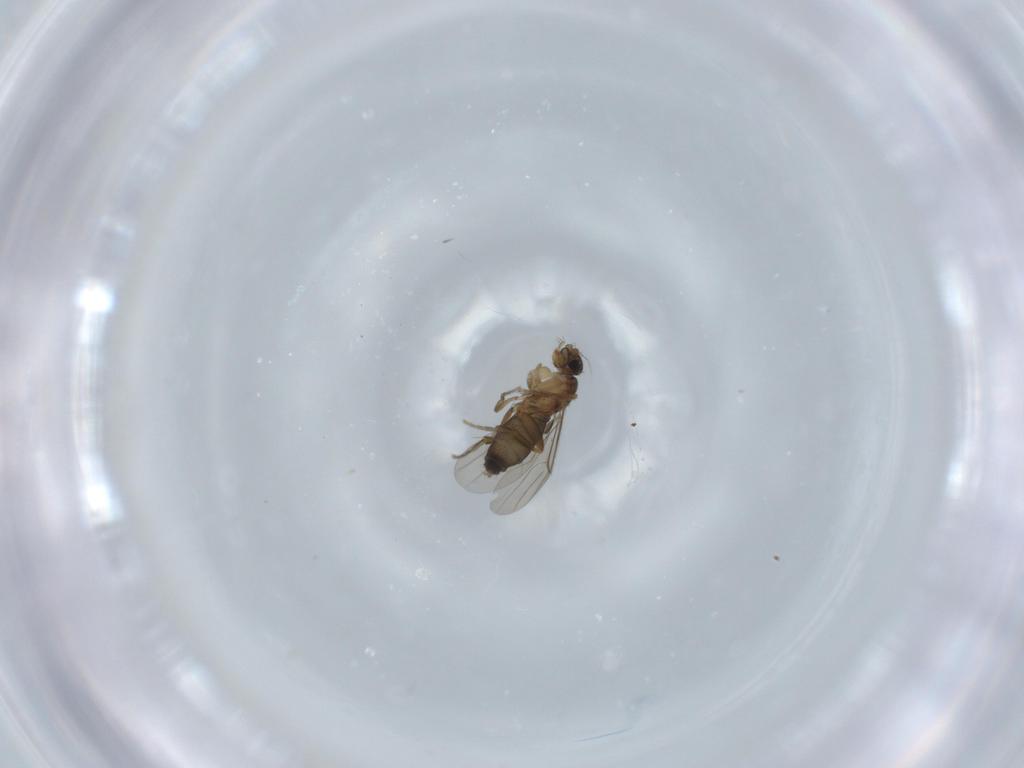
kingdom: Animalia
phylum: Arthropoda
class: Insecta
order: Diptera
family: Phoridae
